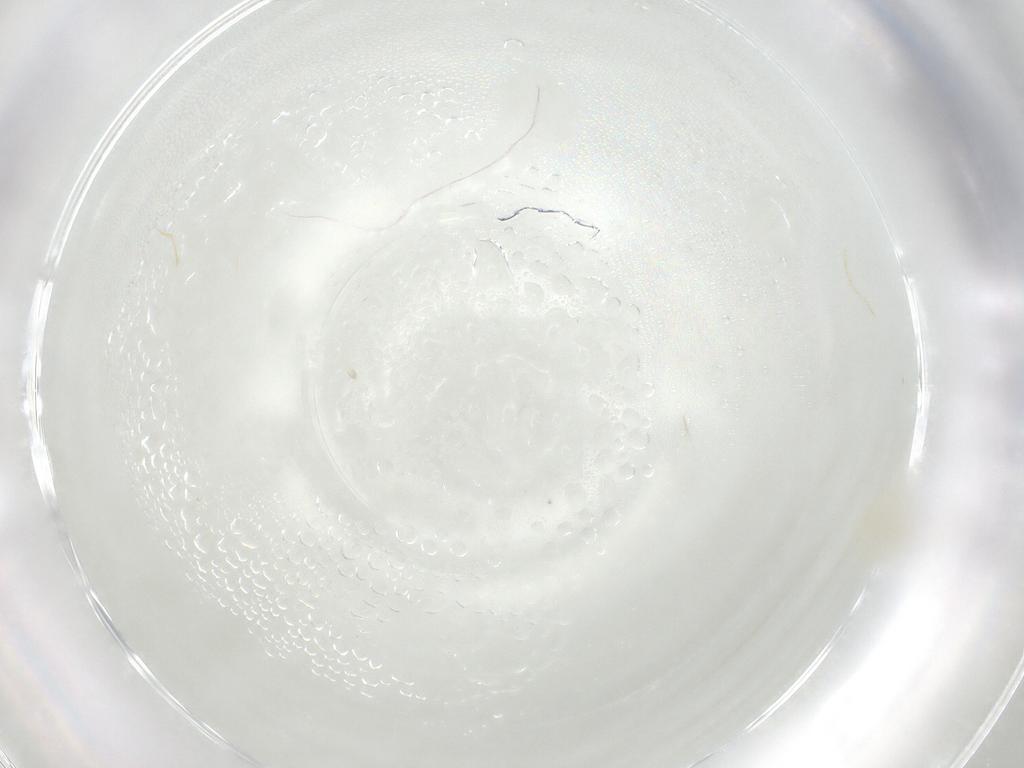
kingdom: Animalia
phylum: Arthropoda
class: Arachnida
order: Trombidiformes
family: Erythraeidae
